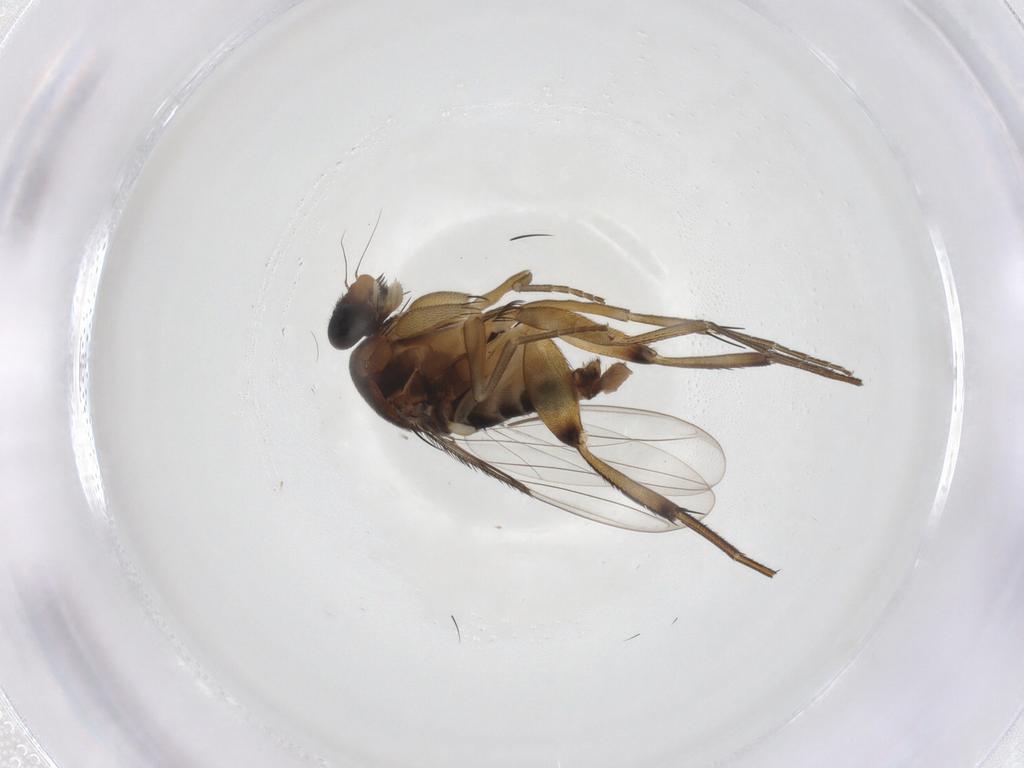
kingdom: Animalia
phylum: Arthropoda
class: Insecta
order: Diptera
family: Phoridae
